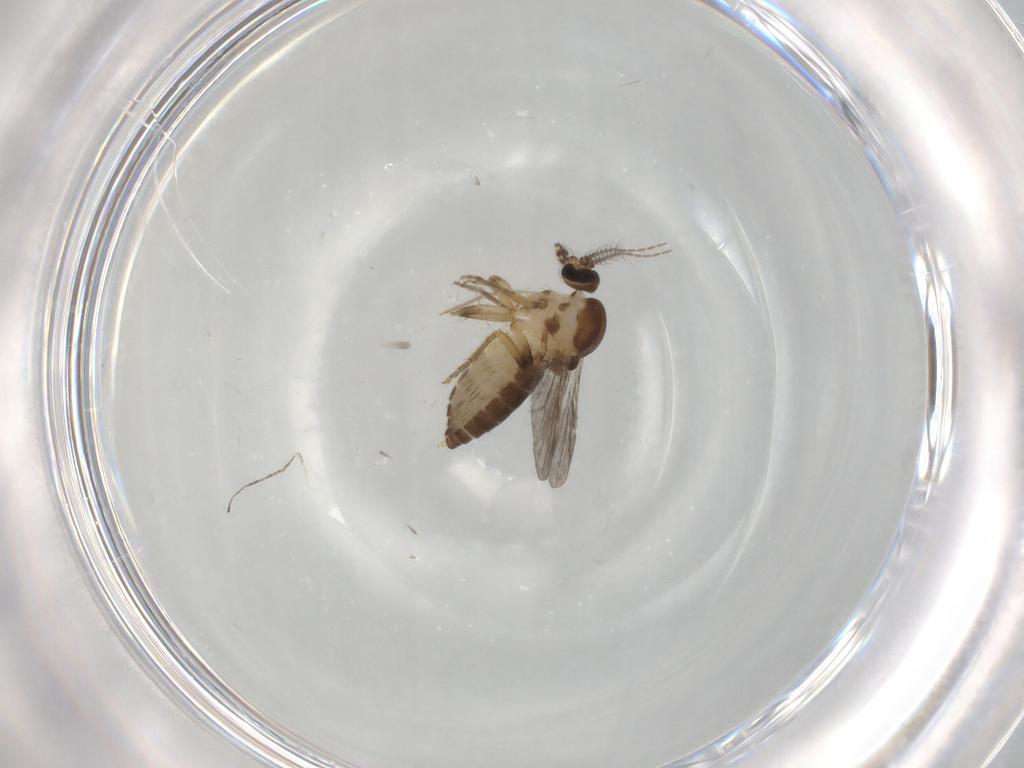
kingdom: Animalia
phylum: Arthropoda
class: Insecta
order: Diptera
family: Ceratopogonidae
